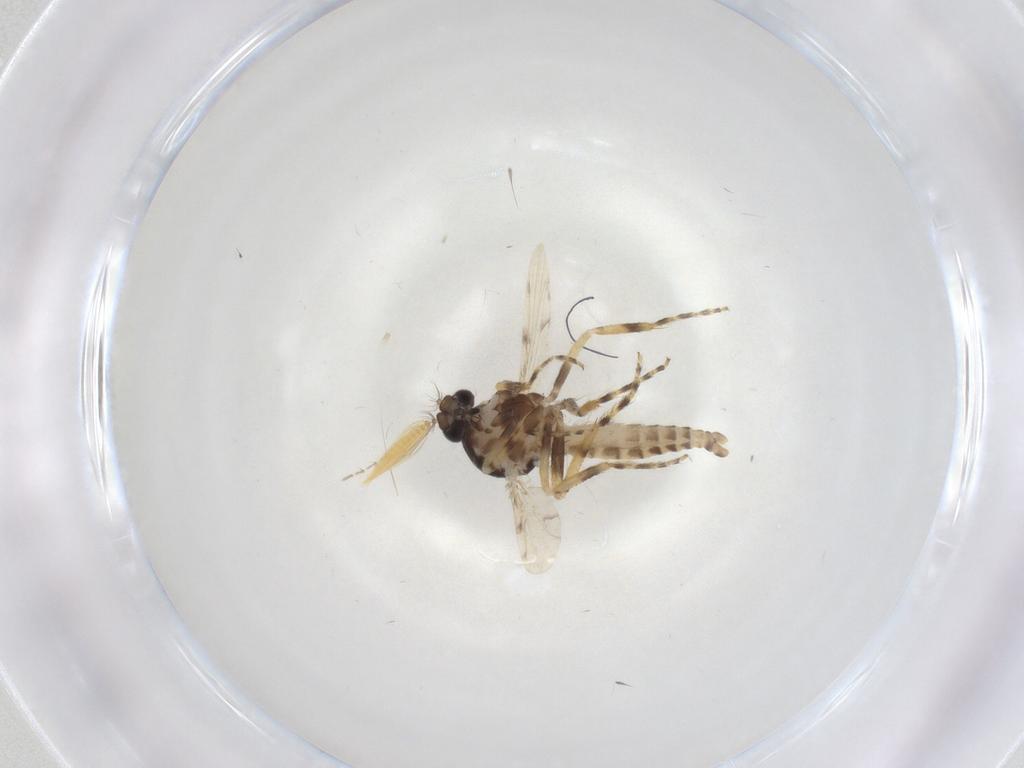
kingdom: Animalia
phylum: Arthropoda
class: Insecta
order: Diptera
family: Ceratopogonidae
